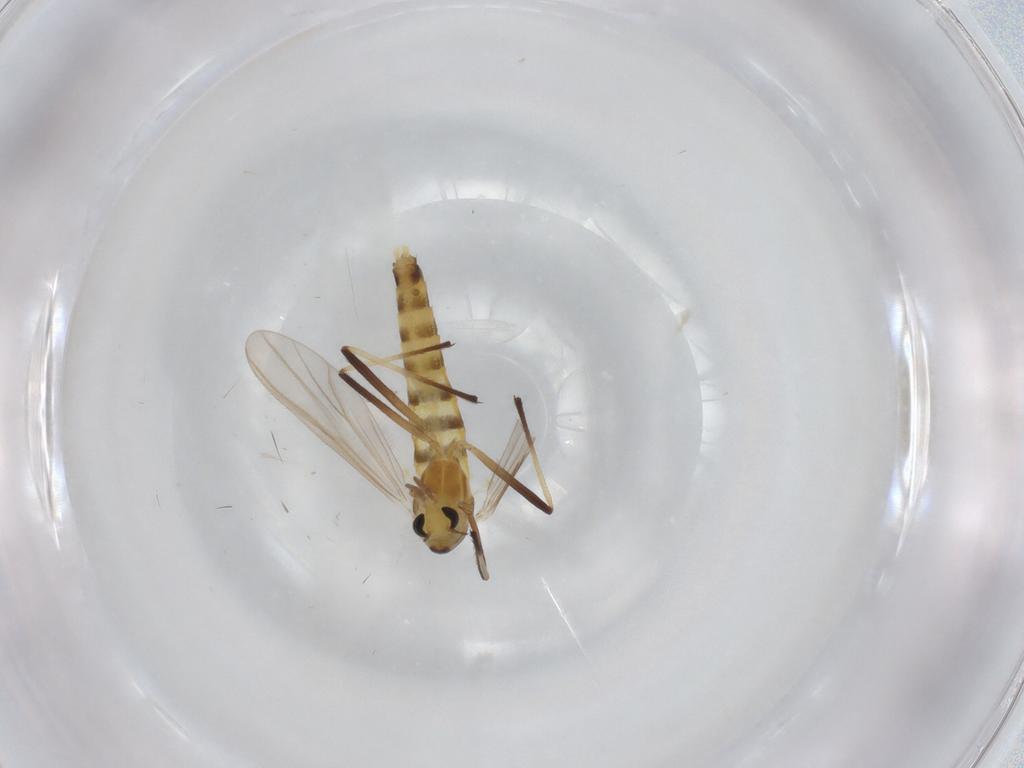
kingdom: Animalia
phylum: Arthropoda
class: Insecta
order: Diptera
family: Chironomidae
